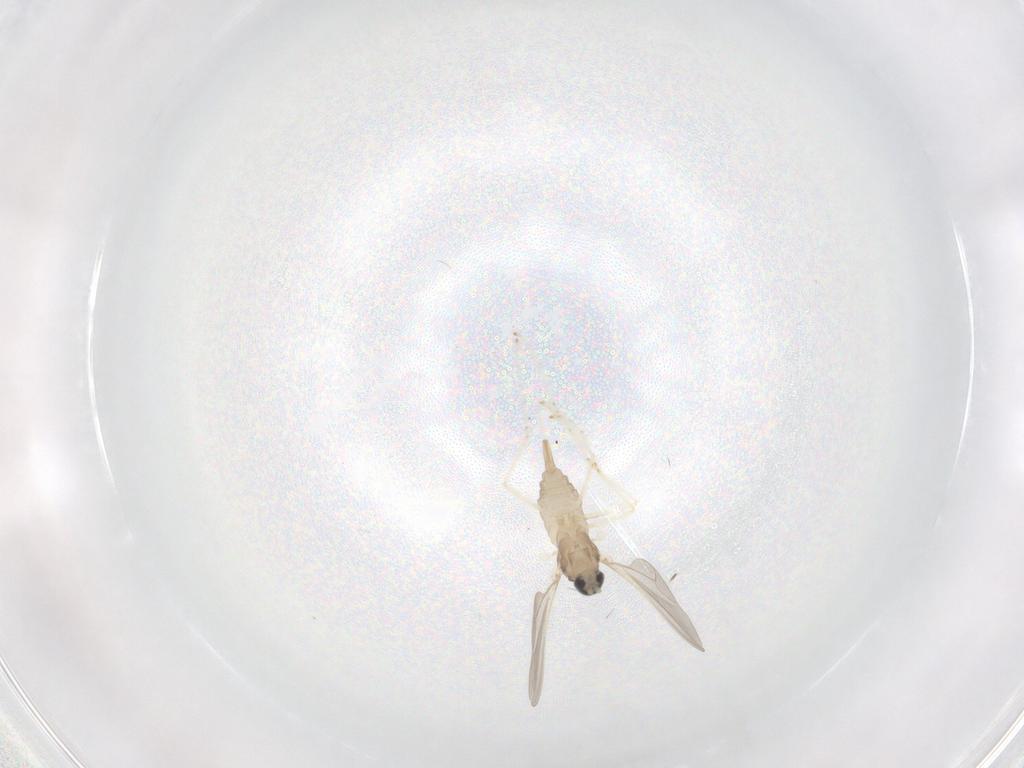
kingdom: Animalia
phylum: Arthropoda
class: Insecta
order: Diptera
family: Cecidomyiidae
